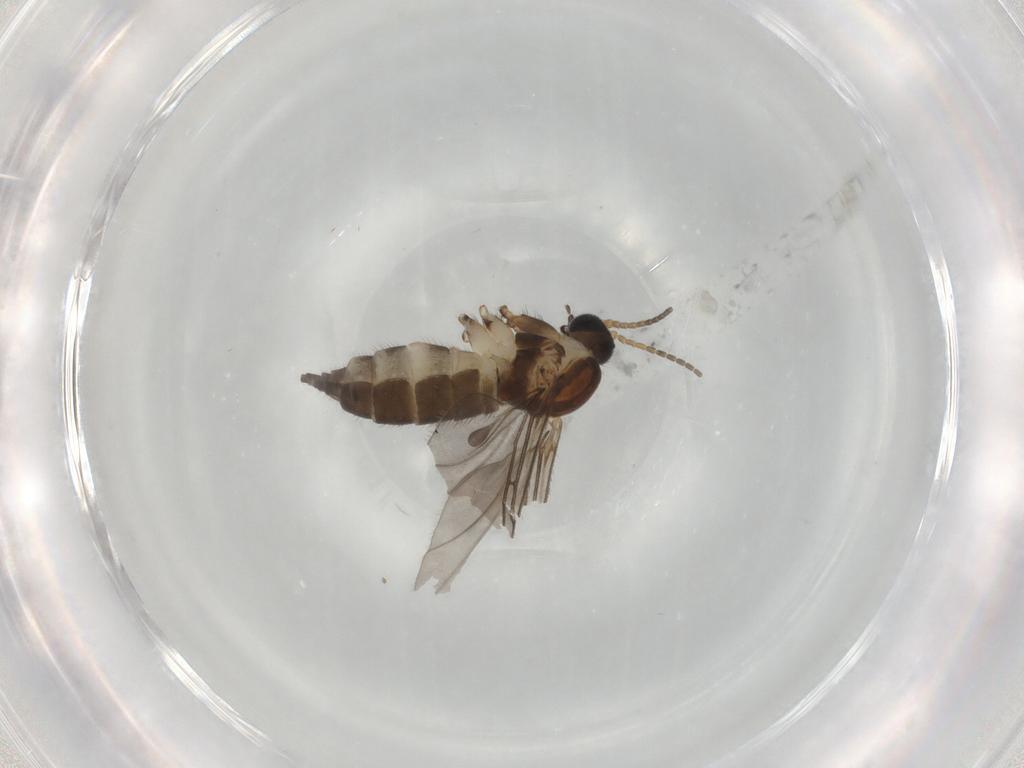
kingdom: Animalia
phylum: Arthropoda
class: Insecta
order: Diptera
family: Sciaridae
